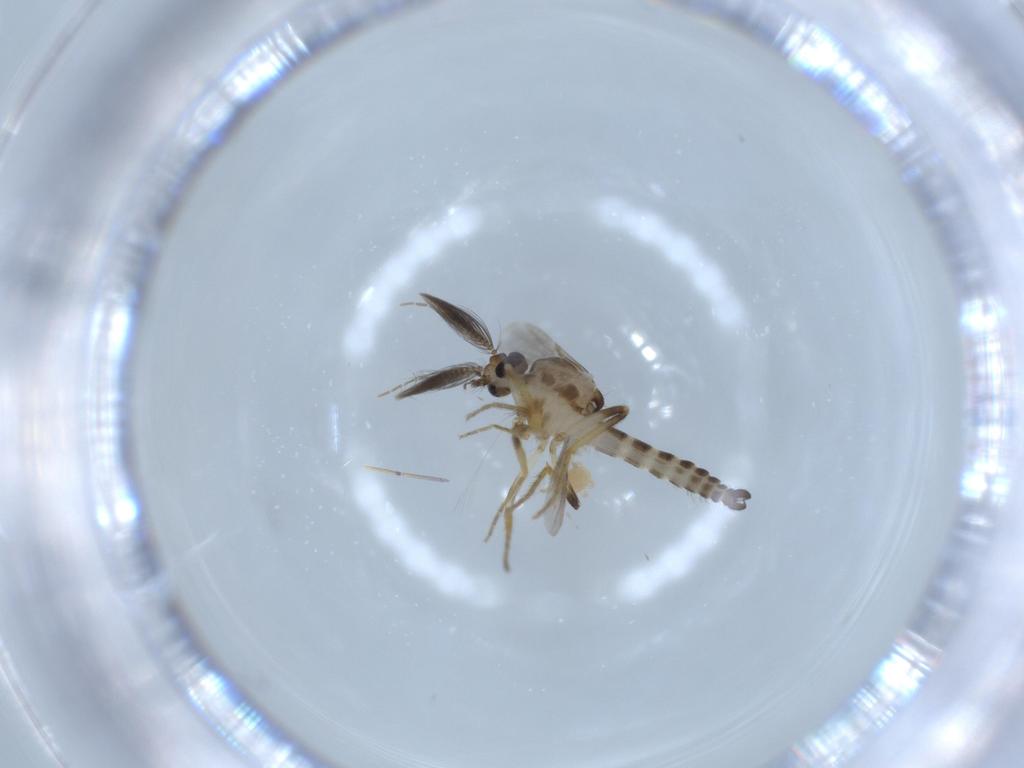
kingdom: Animalia
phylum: Arthropoda
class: Insecta
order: Diptera
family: Ceratopogonidae
